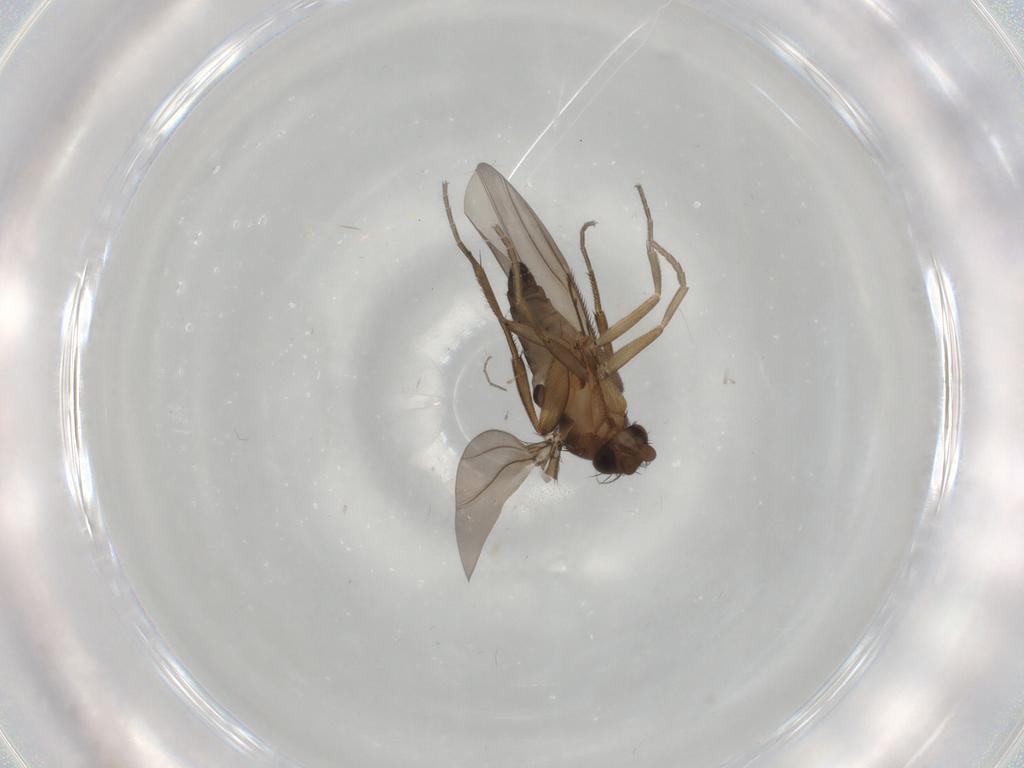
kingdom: Animalia
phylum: Arthropoda
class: Insecta
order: Diptera
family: Phoridae
